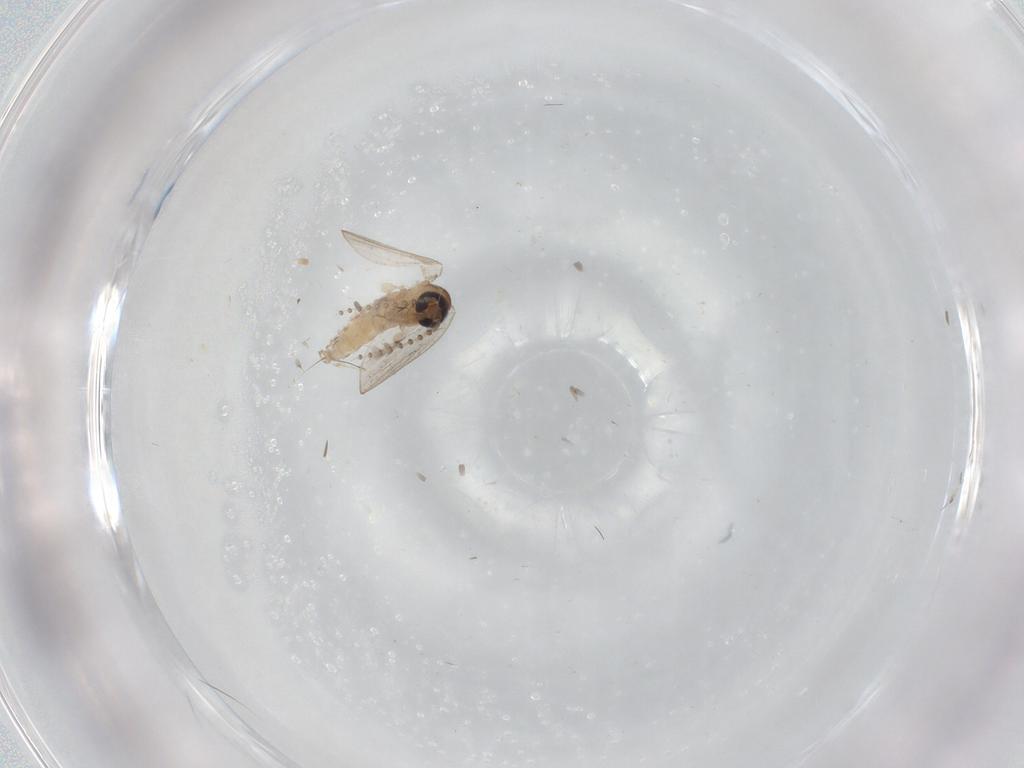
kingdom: Animalia
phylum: Arthropoda
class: Insecta
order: Diptera
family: Psychodidae
